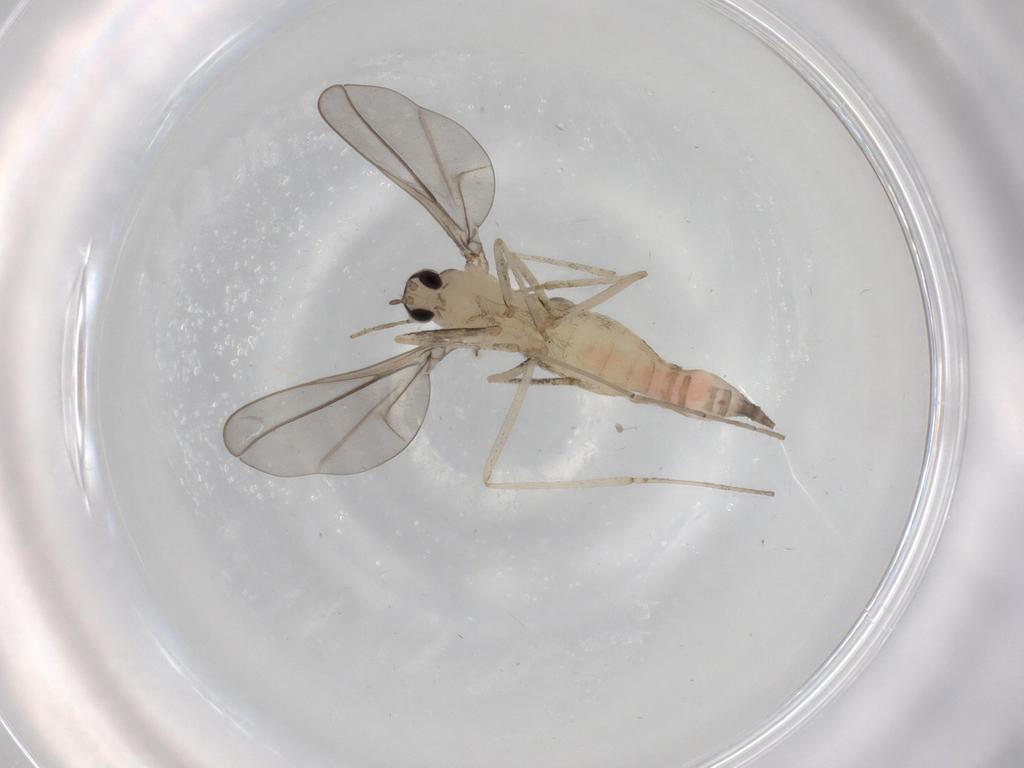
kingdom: Animalia
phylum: Arthropoda
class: Insecta
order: Diptera
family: Cecidomyiidae
